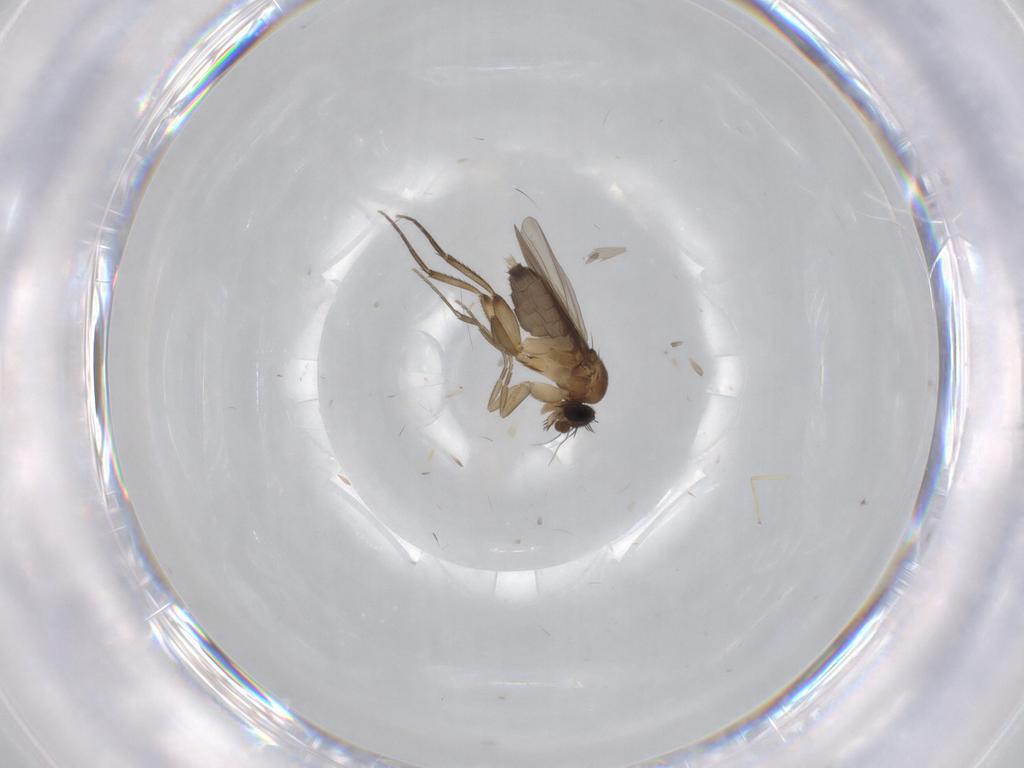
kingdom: Animalia
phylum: Arthropoda
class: Insecta
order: Diptera
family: Phoridae
